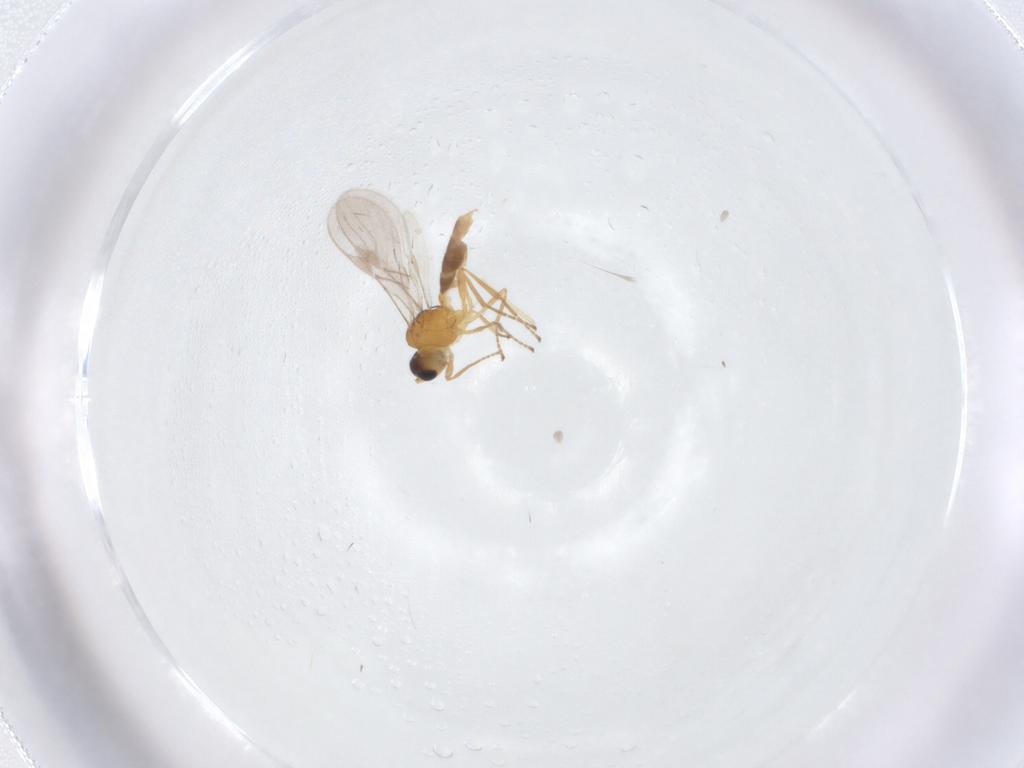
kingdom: Animalia
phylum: Arthropoda
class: Insecta
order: Hymenoptera
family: Braconidae
